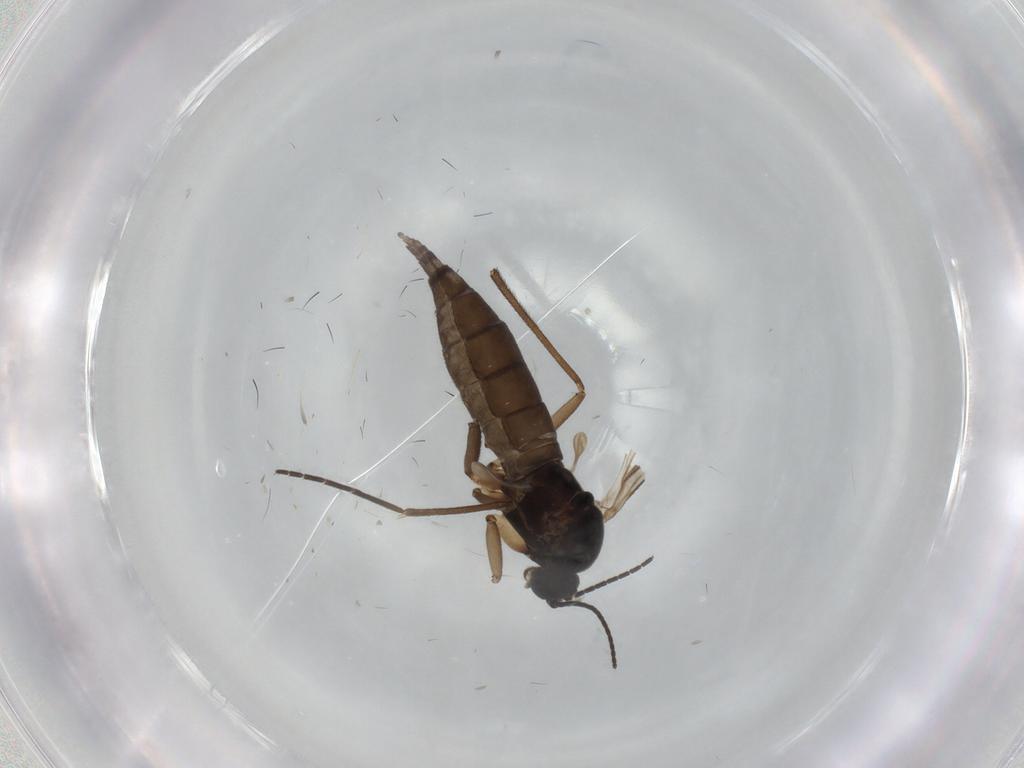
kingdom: Animalia
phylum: Arthropoda
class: Insecta
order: Diptera
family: Sciaridae
